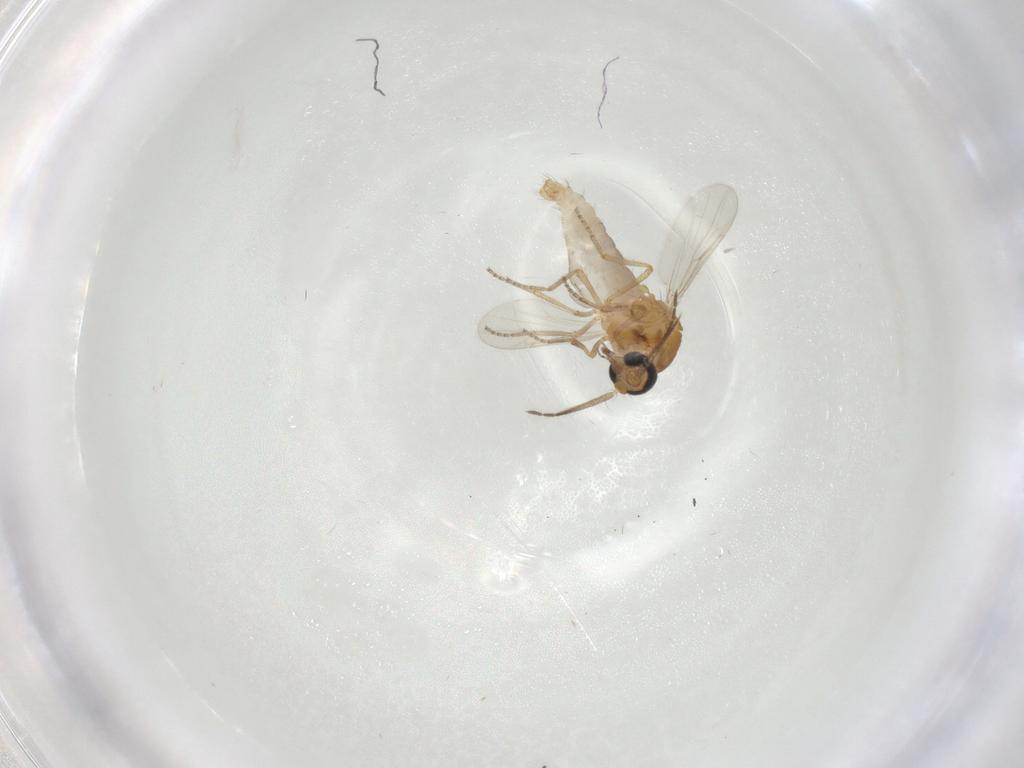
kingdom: Animalia
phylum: Arthropoda
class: Insecta
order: Diptera
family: Ceratopogonidae
